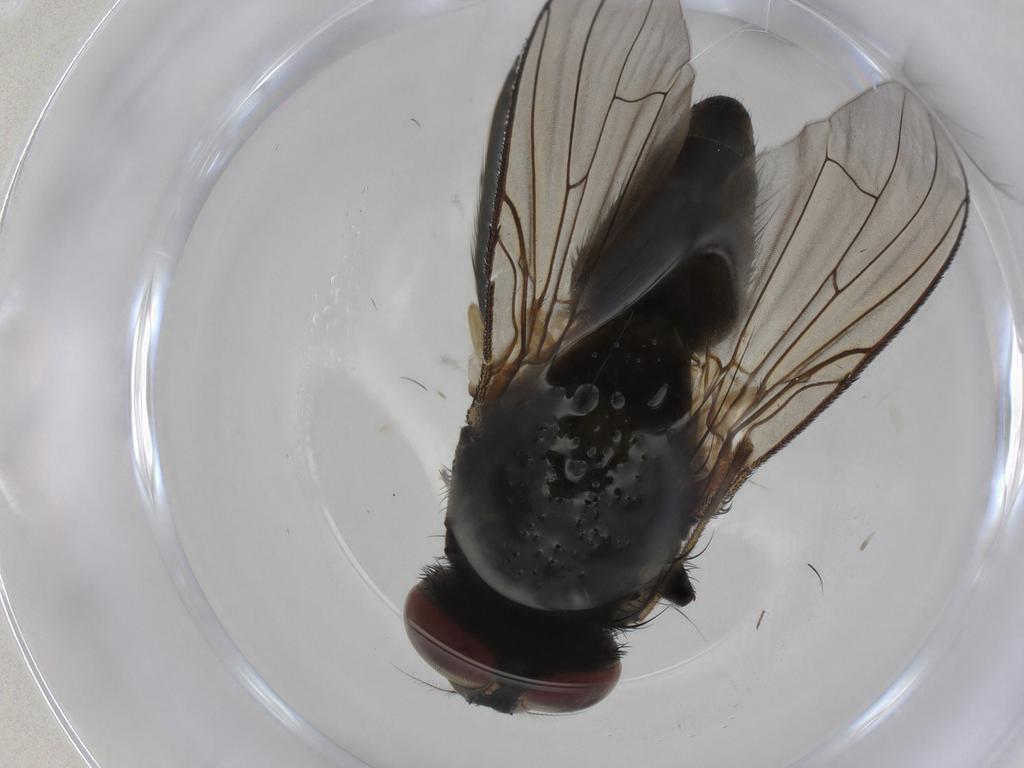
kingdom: Animalia
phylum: Arthropoda
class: Insecta
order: Diptera
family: Muscidae
